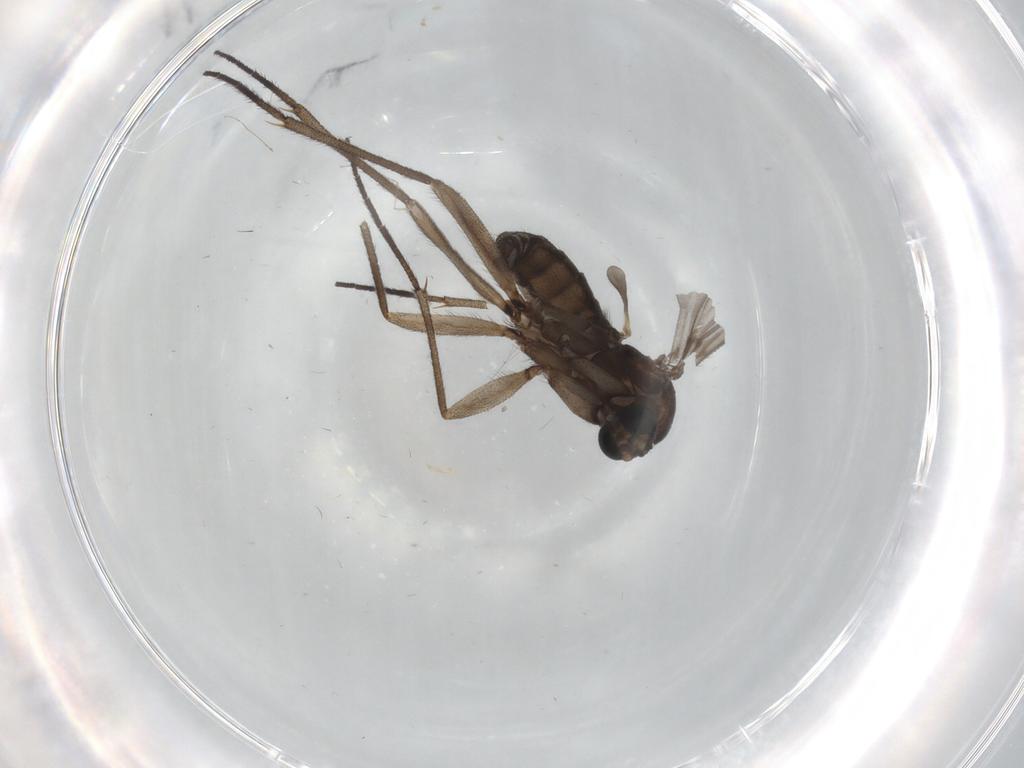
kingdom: Animalia
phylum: Arthropoda
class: Insecta
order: Diptera
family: Sciaridae
